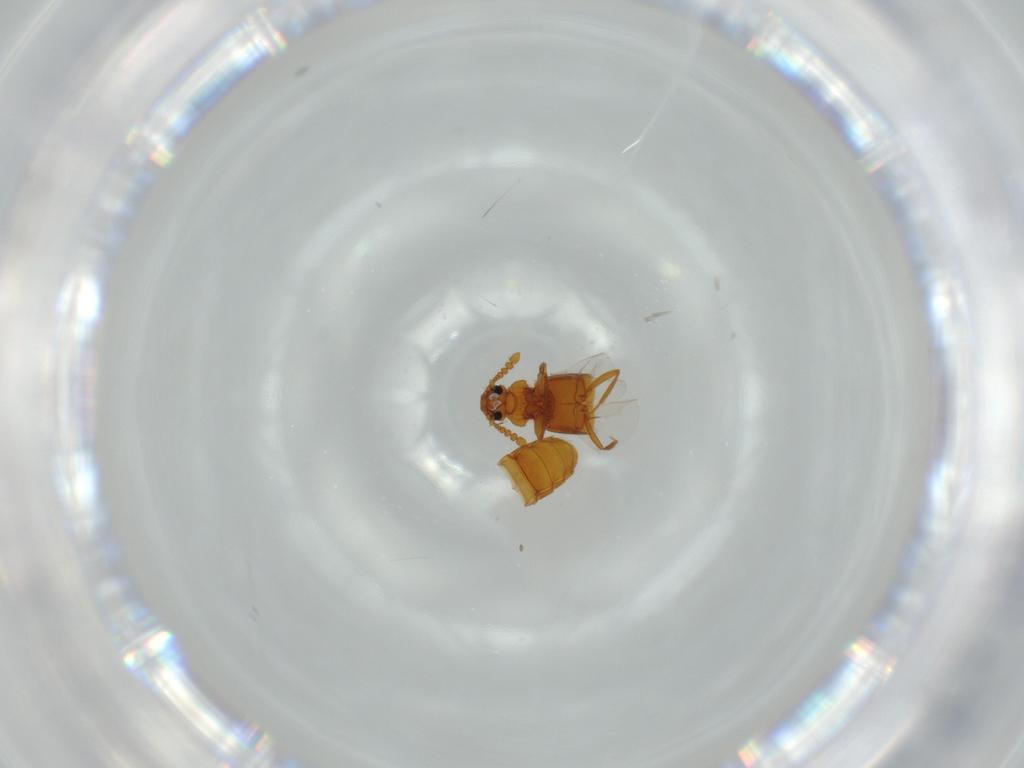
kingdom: Animalia
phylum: Arthropoda
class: Insecta
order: Coleoptera
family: Staphylinidae
